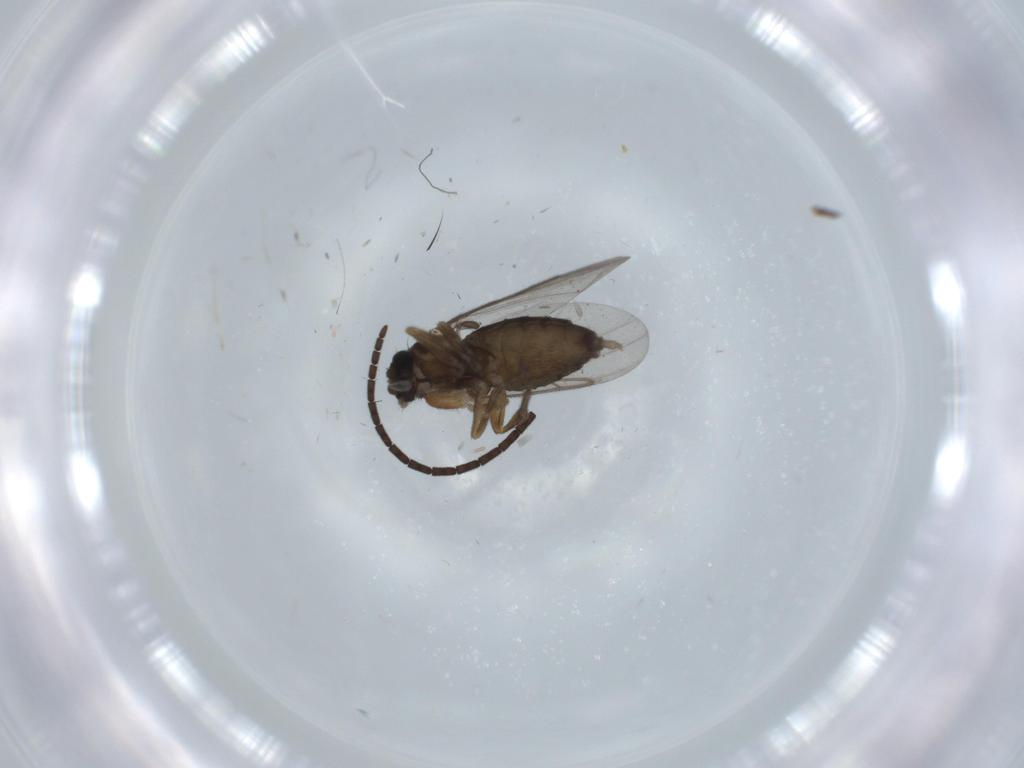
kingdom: Animalia
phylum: Arthropoda
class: Insecta
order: Diptera
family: Phoridae
